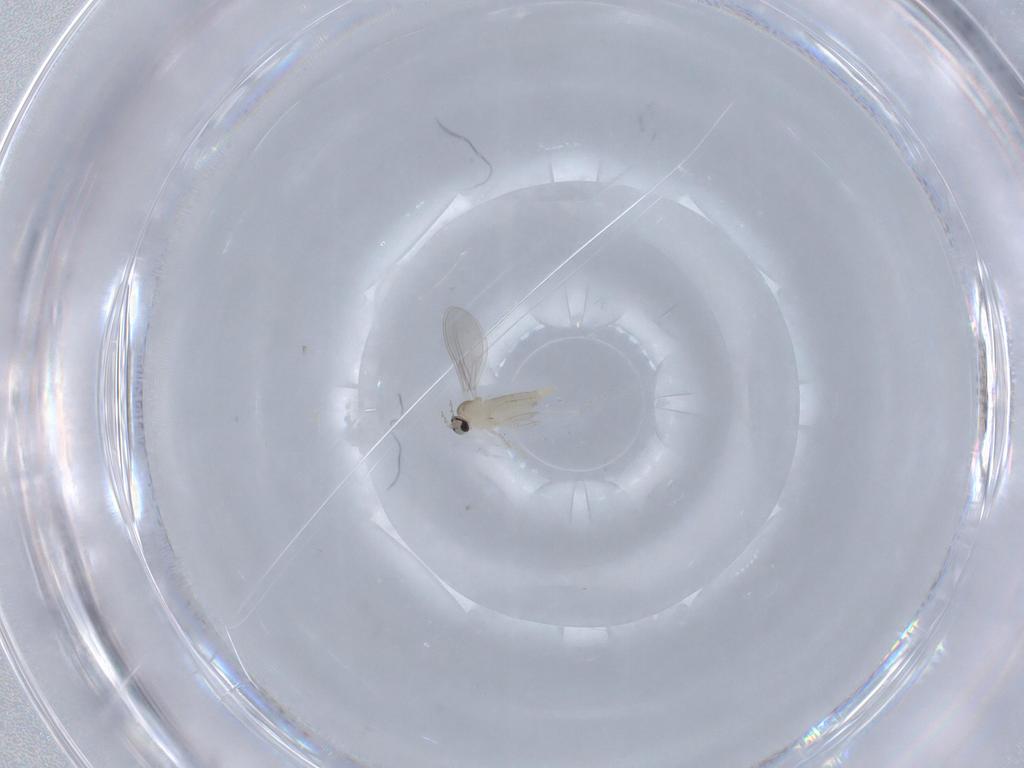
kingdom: Animalia
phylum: Arthropoda
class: Insecta
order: Diptera
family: Cecidomyiidae
